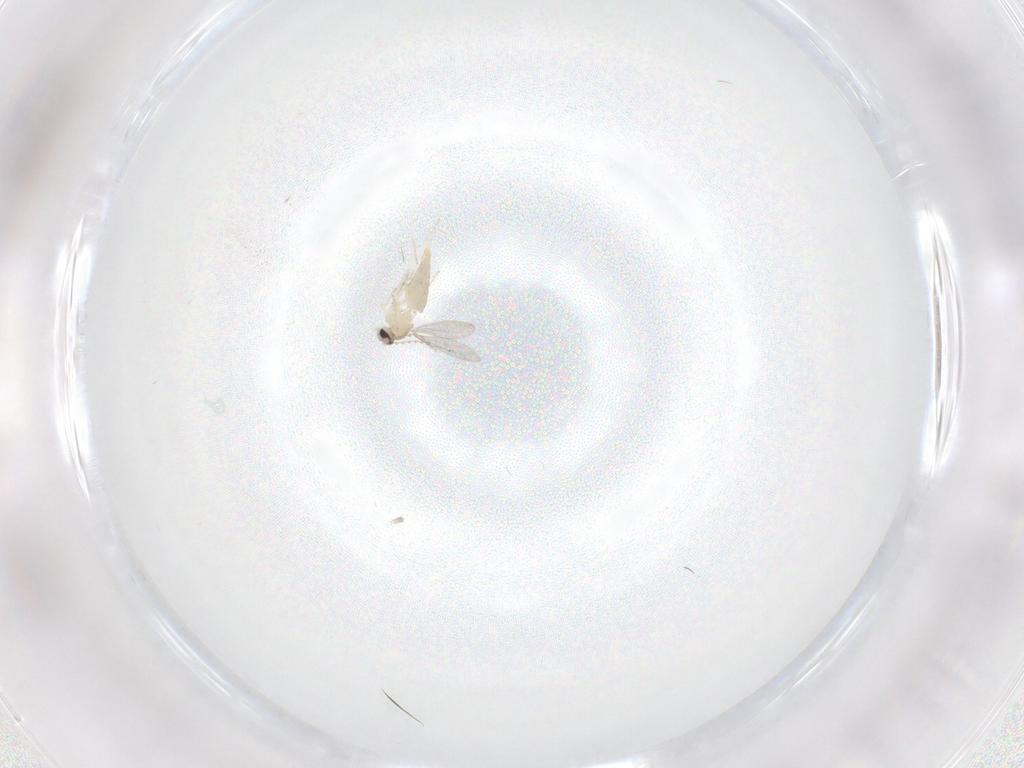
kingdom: Animalia
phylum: Arthropoda
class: Insecta
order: Diptera
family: Cecidomyiidae
